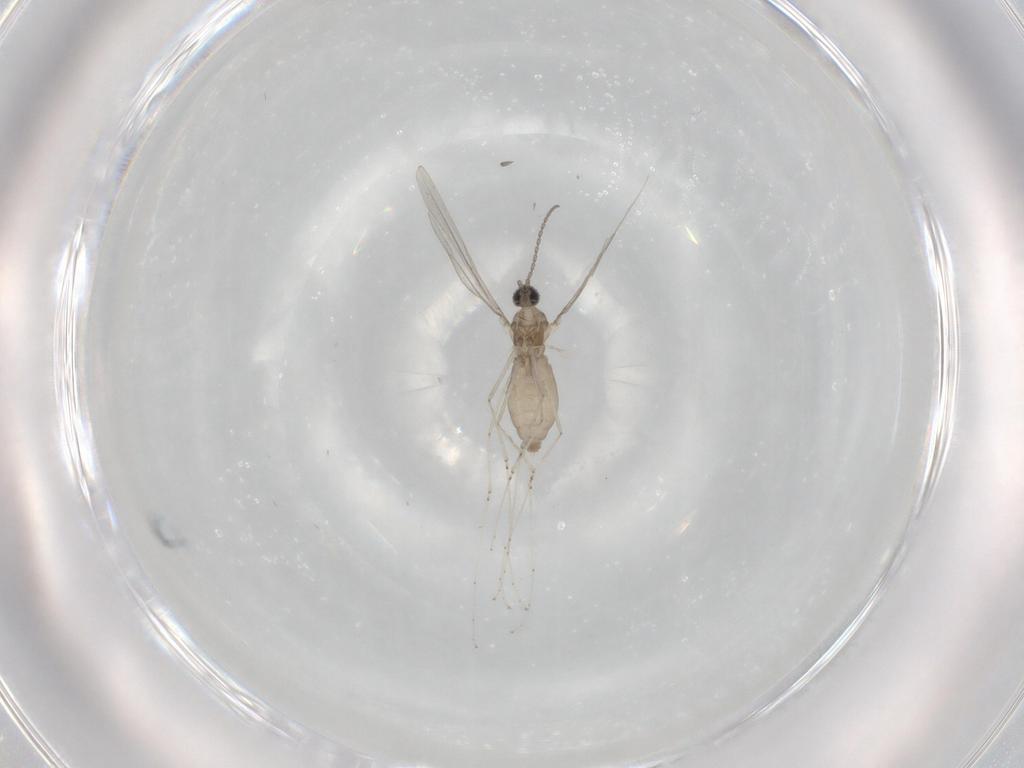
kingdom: Animalia
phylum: Arthropoda
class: Insecta
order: Diptera
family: Cecidomyiidae
